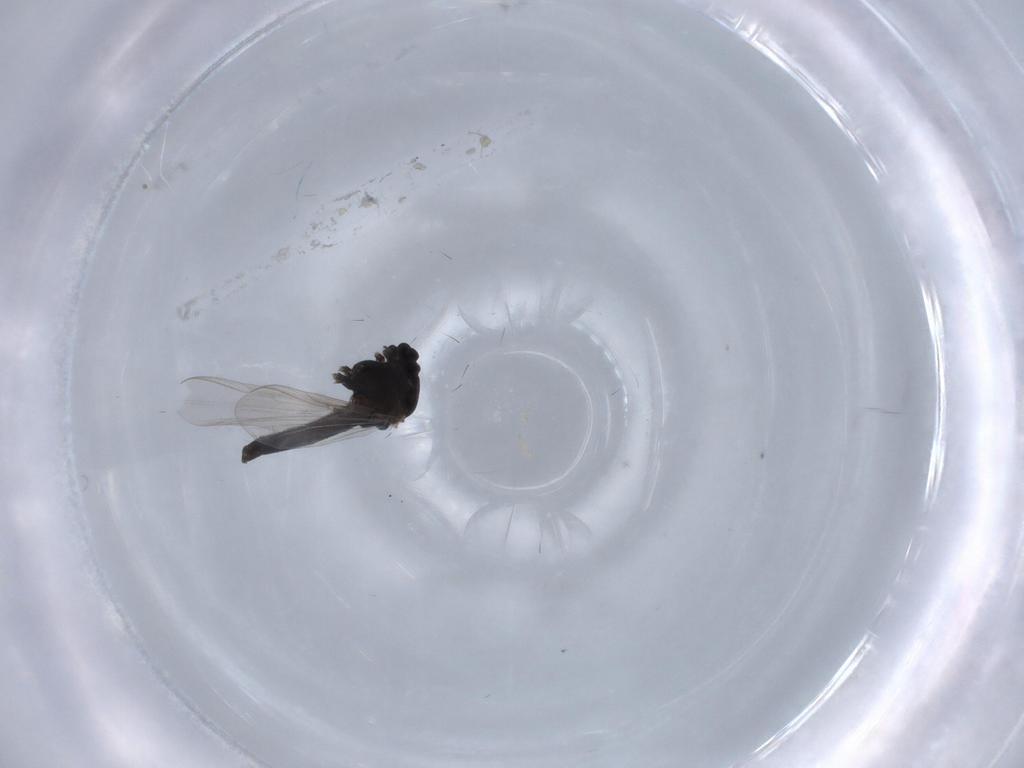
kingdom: Animalia
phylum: Arthropoda
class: Insecta
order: Diptera
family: Chironomidae
